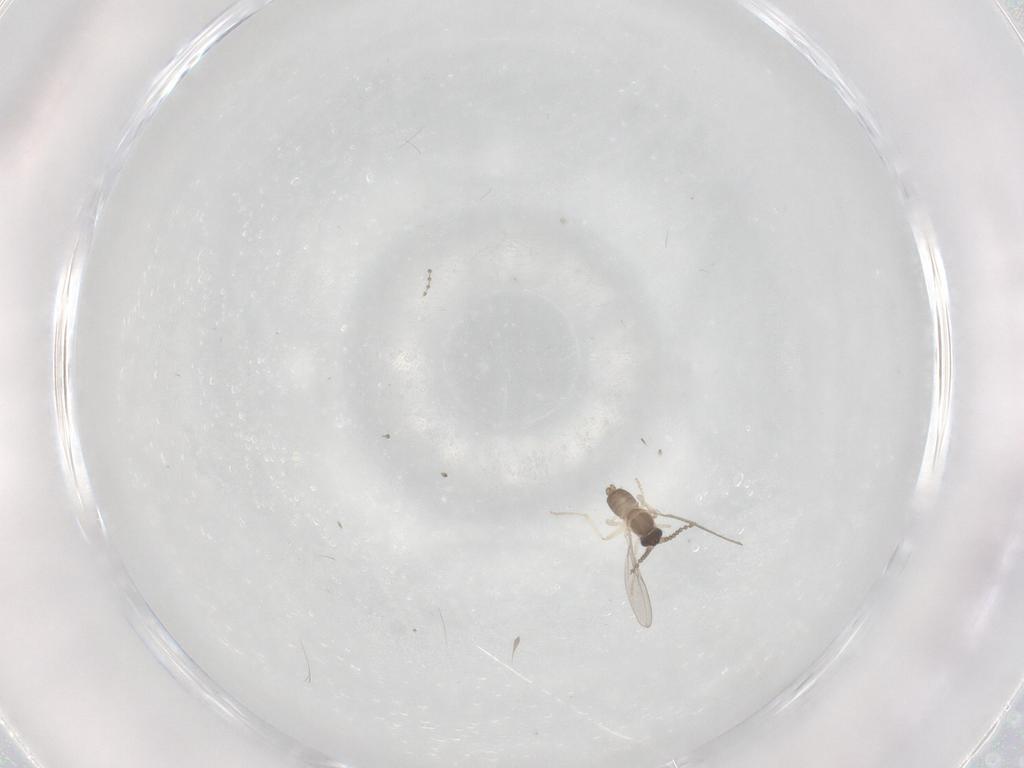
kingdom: Animalia
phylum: Arthropoda
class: Insecta
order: Diptera
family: Cecidomyiidae
